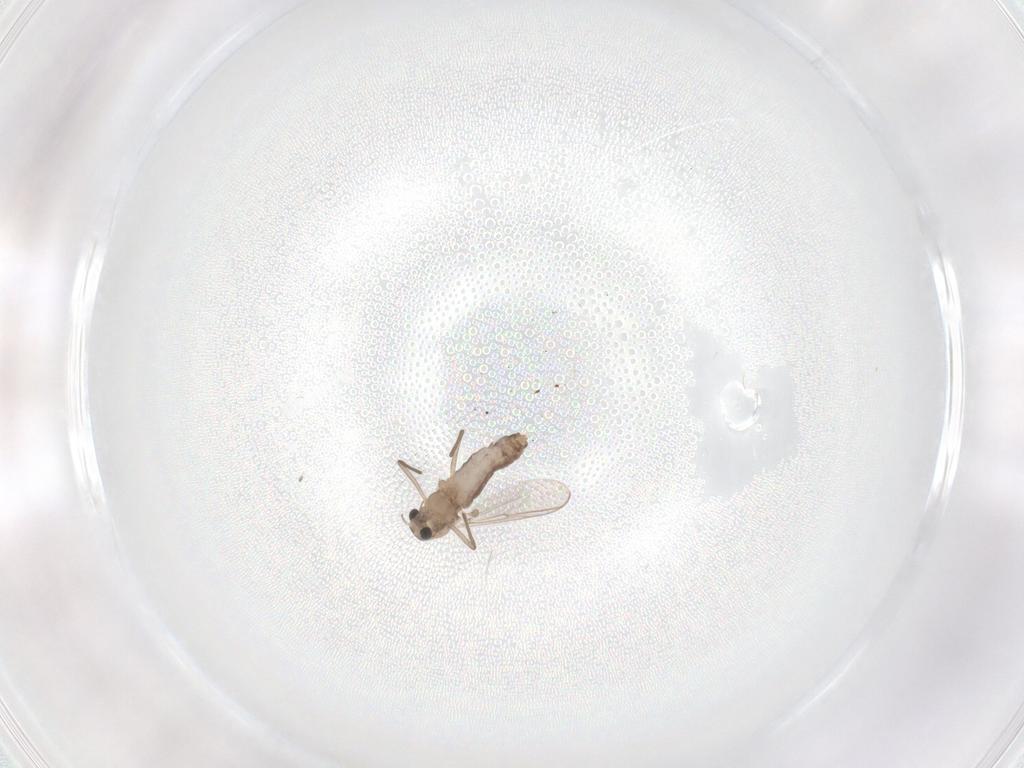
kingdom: Animalia
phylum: Arthropoda
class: Insecta
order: Diptera
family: Chironomidae
